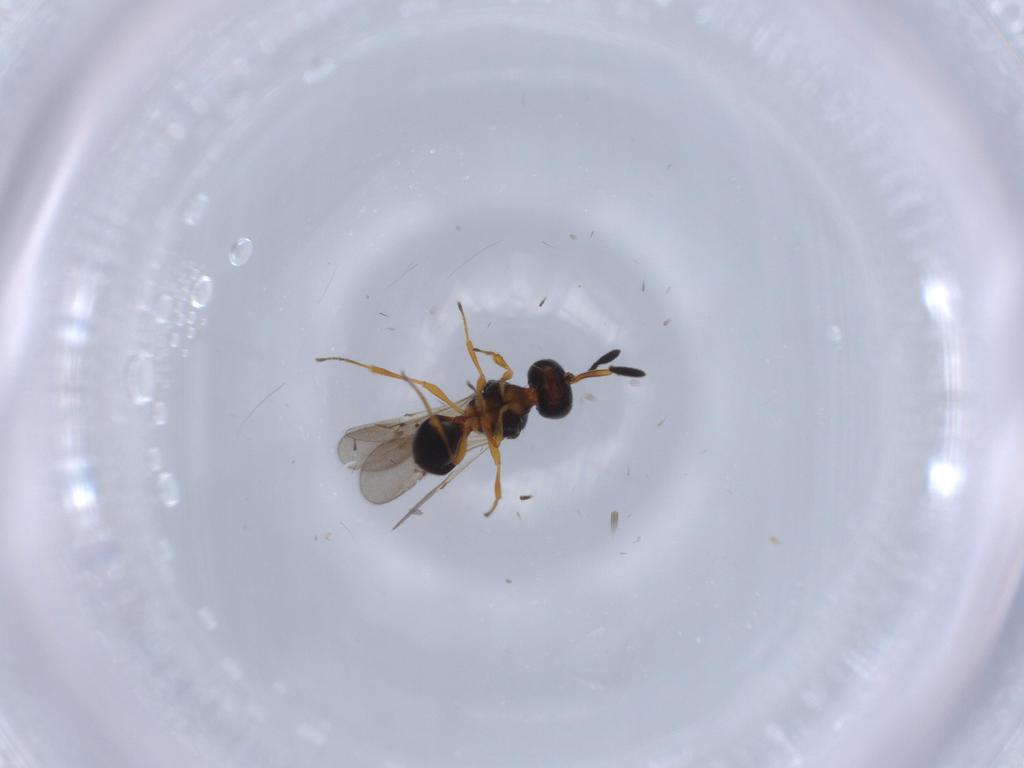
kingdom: Animalia
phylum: Arthropoda
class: Insecta
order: Hymenoptera
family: Scelionidae
